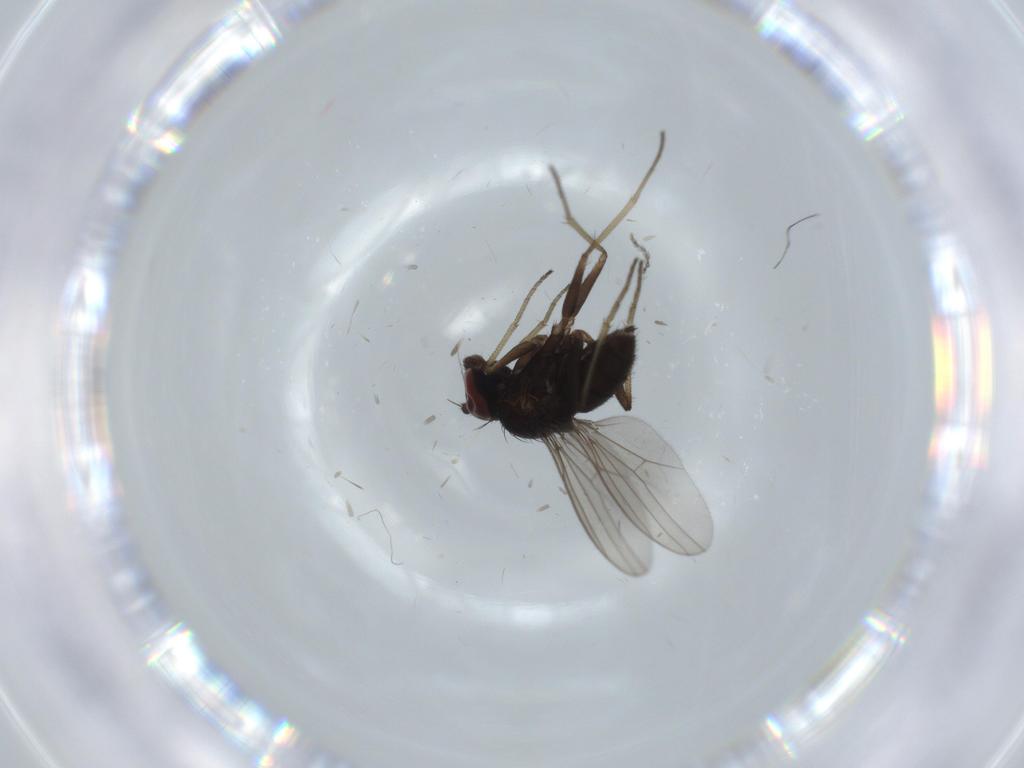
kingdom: Animalia
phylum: Arthropoda
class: Insecta
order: Diptera
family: Dolichopodidae
